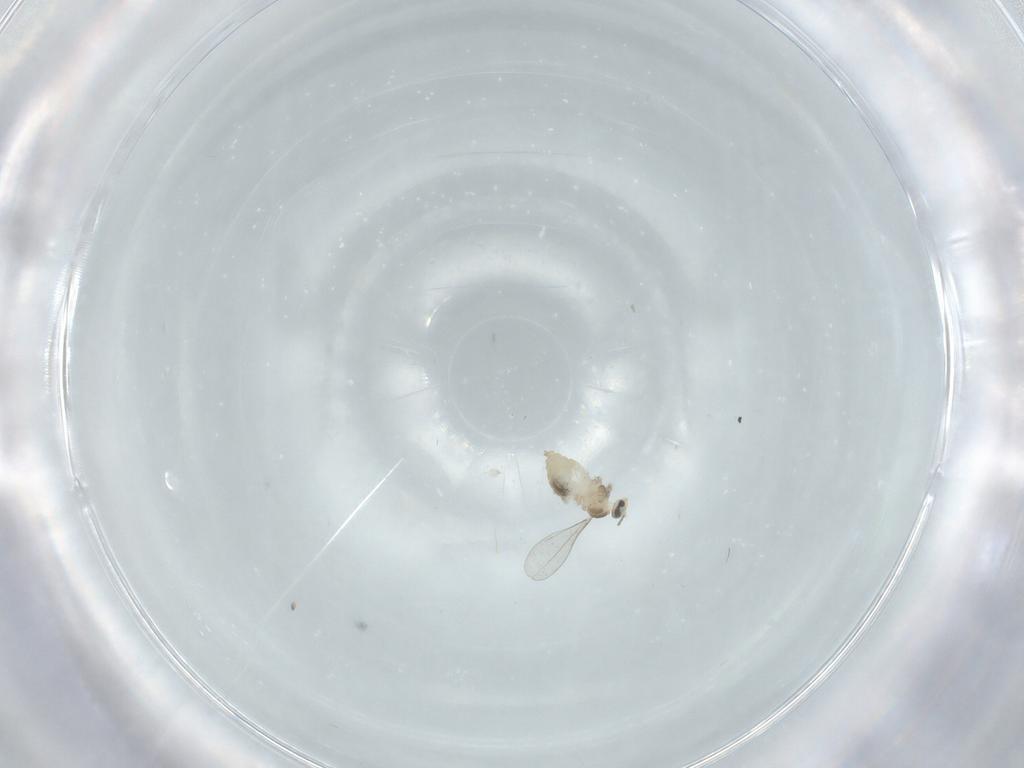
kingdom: Animalia
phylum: Arthropoda
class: Insecta
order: Diptera
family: Cecidomyiidae
